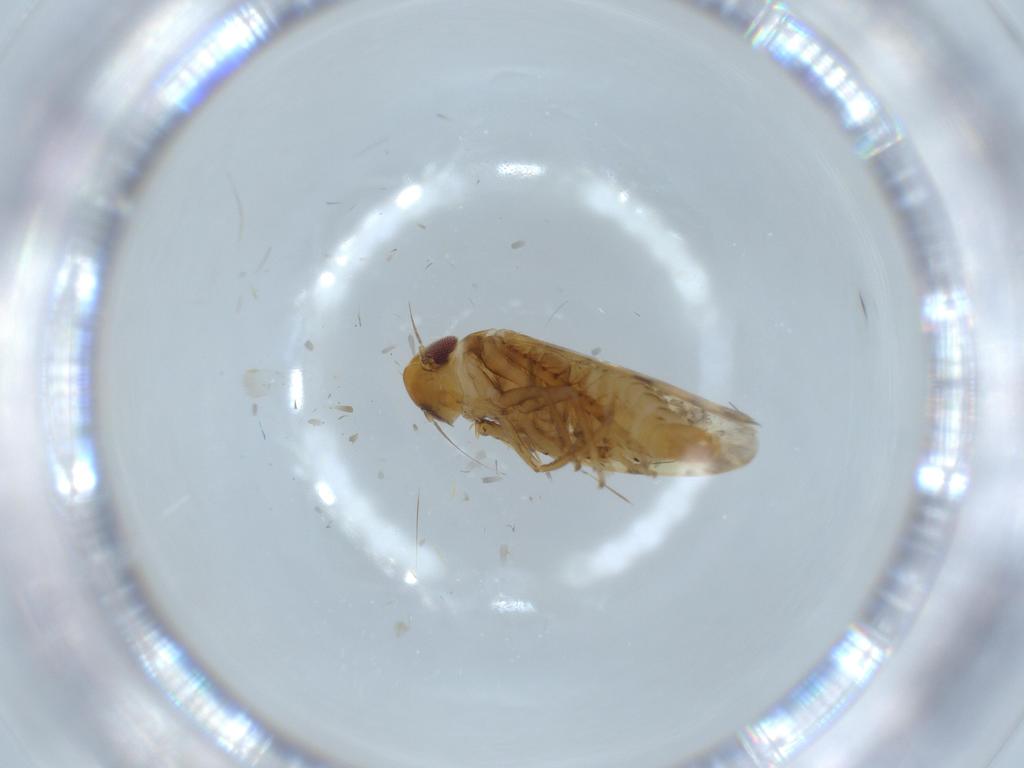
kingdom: Animalia
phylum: Arthropoda
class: Insecta
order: Hemiptera
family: Cicadellidae
